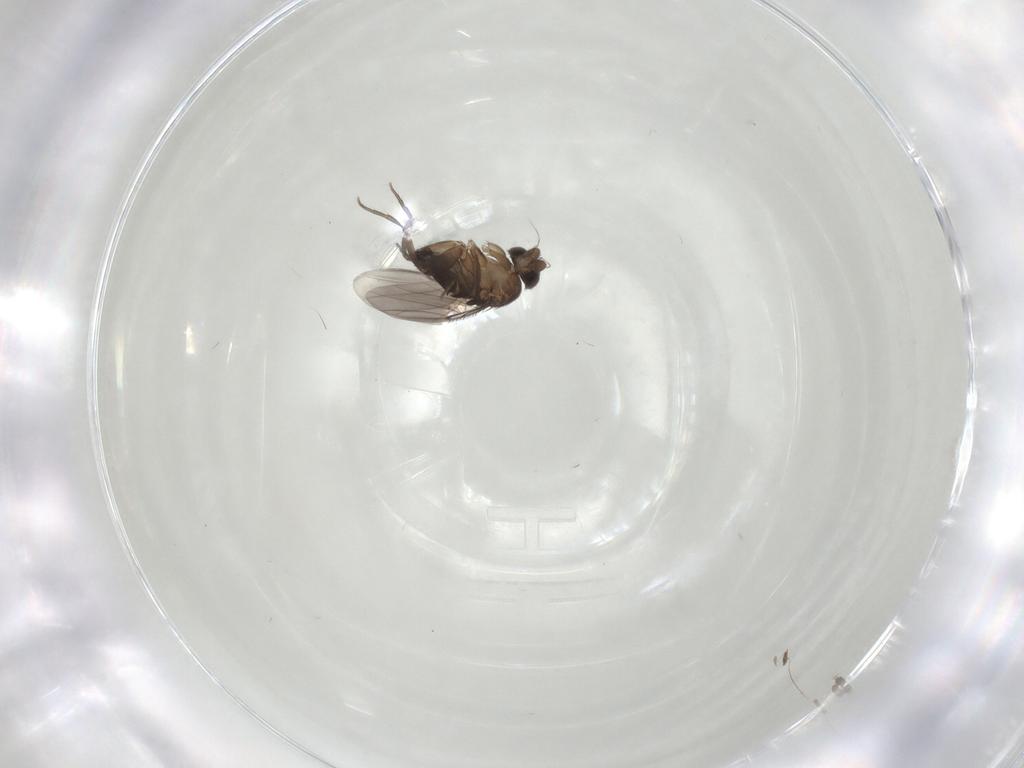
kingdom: Animalia
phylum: Arthropoda
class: Insecta
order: Diptera
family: Phoridae
